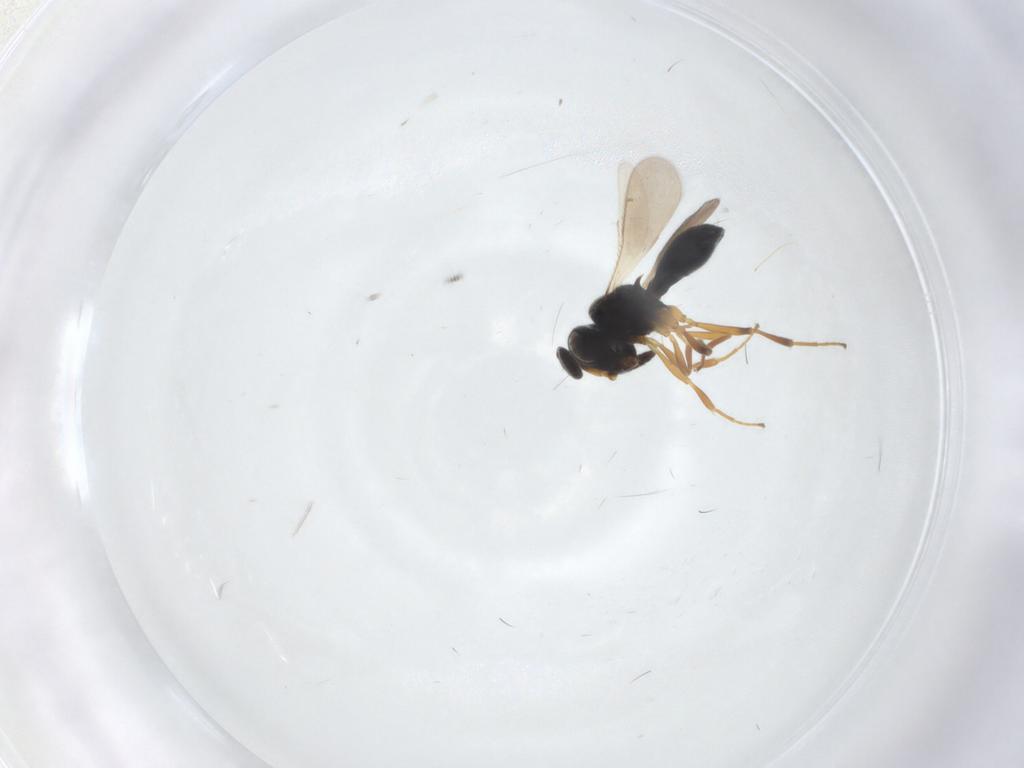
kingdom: Animalia
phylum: Arthropoda
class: Insecta
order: Hymenoptera
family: Scelionidae
